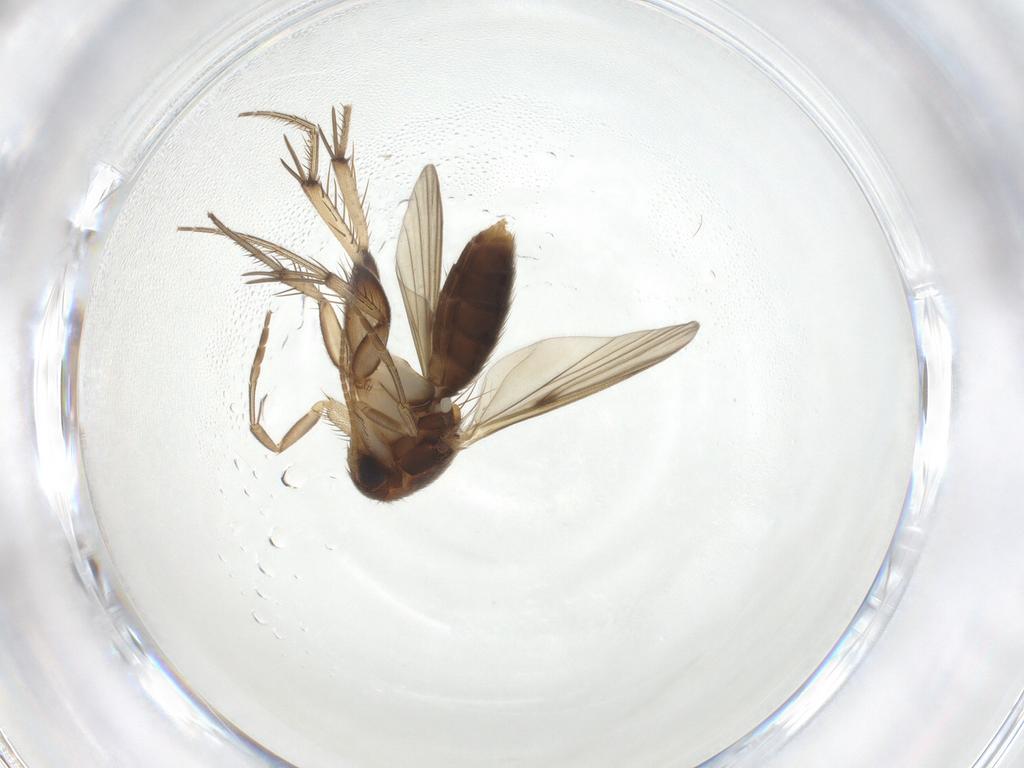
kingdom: Animalia
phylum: Arthropoda
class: Insecta
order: Diptera
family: Mycetophilidae
